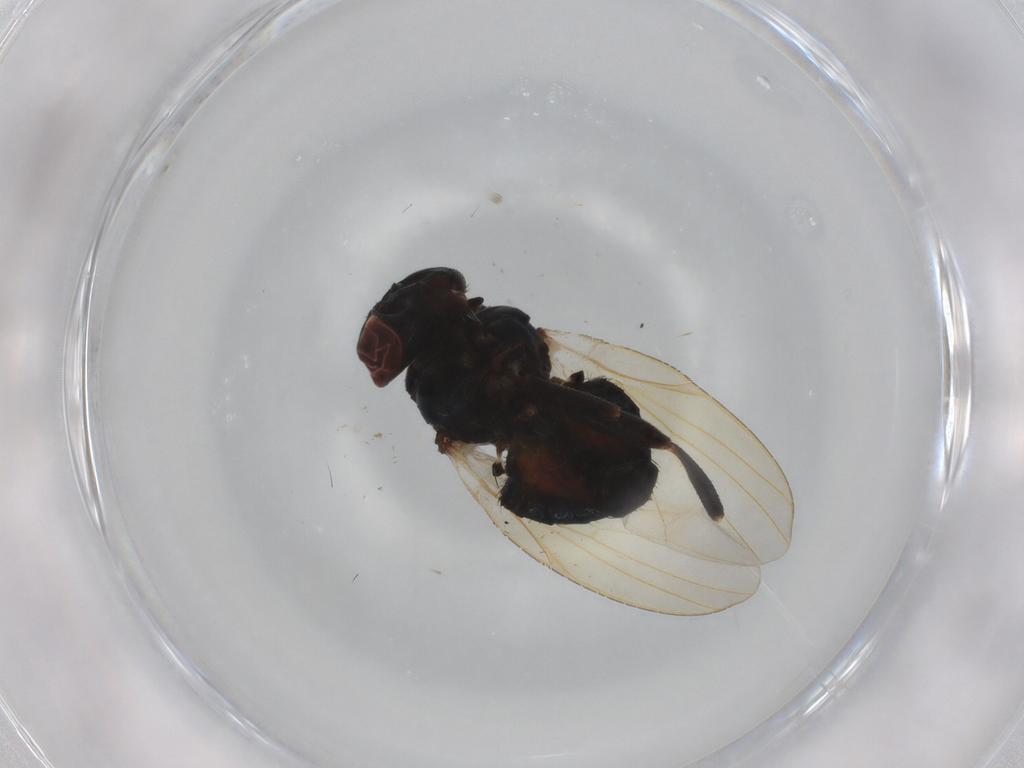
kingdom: Animalia
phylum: Arthropoda
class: Insecta
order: Diptera
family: Lonchaeidae
